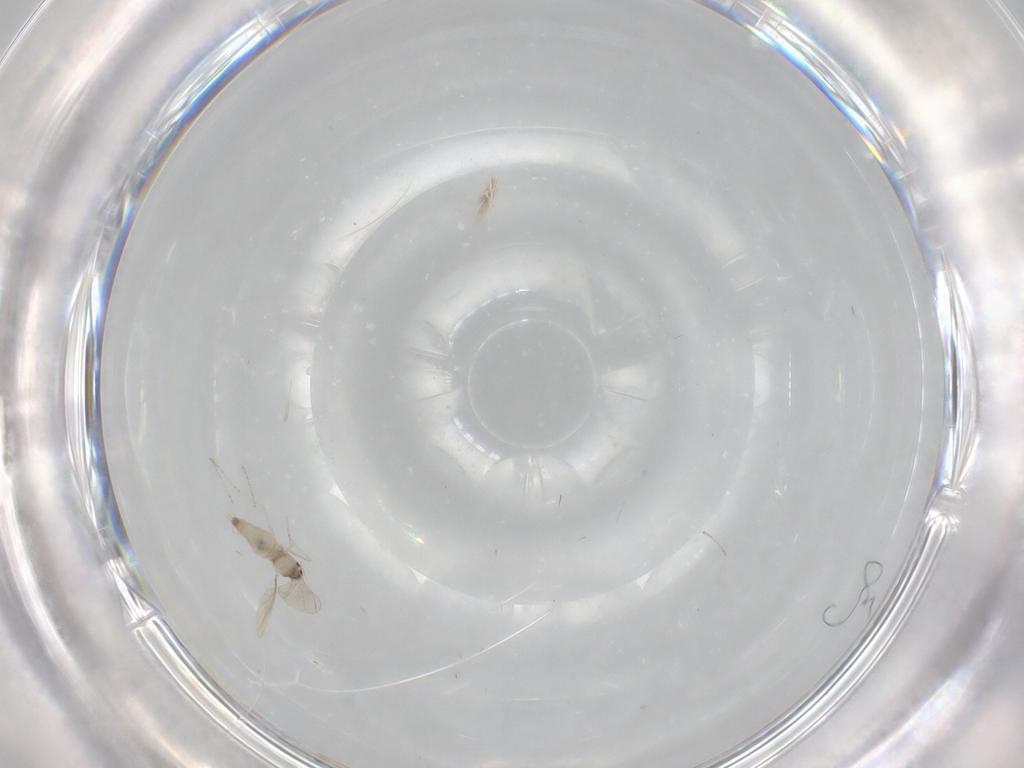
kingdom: Animalia
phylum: Arthropoda
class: Insecta
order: Diptera
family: Cecidomyiidae
